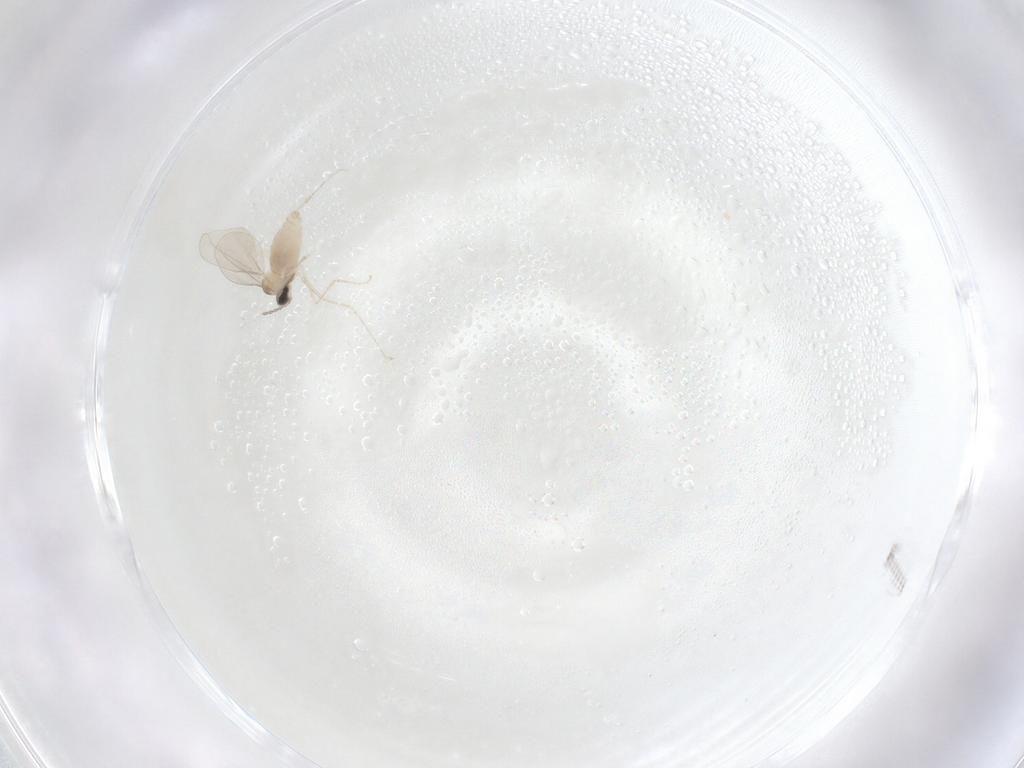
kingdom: Animalia
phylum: Arthropoda
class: Insecta
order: Diptera
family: Cecidomyiidae
